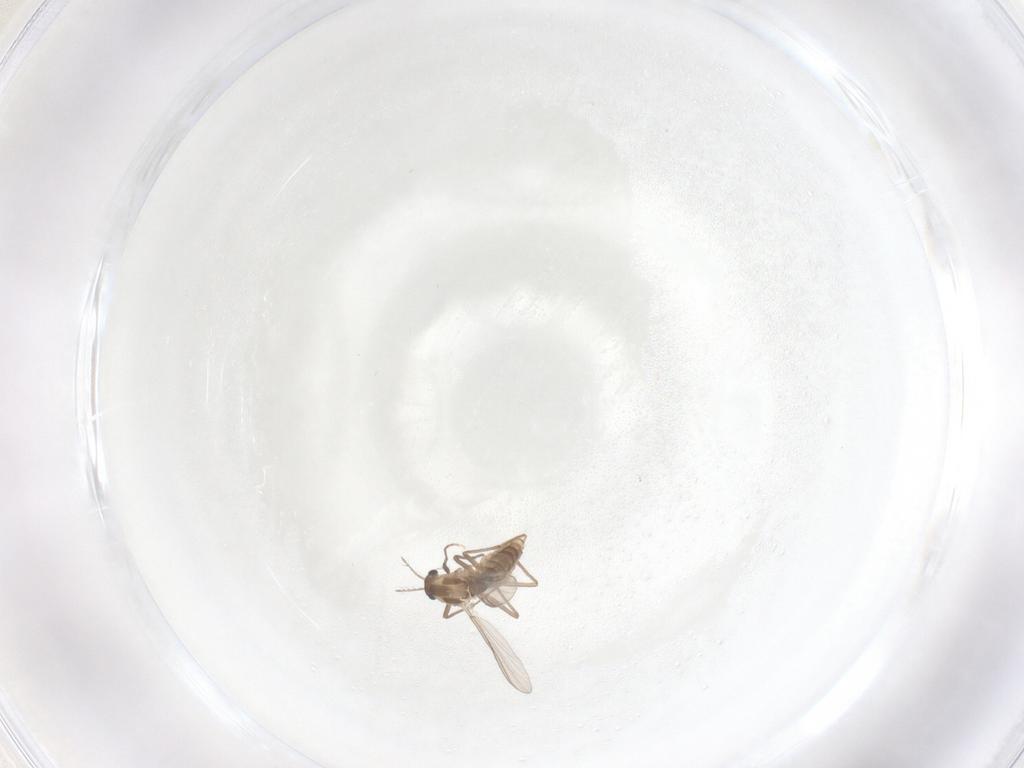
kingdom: Animalia
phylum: Arthropoda
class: Insecta
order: Diptera
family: Chironomidae
